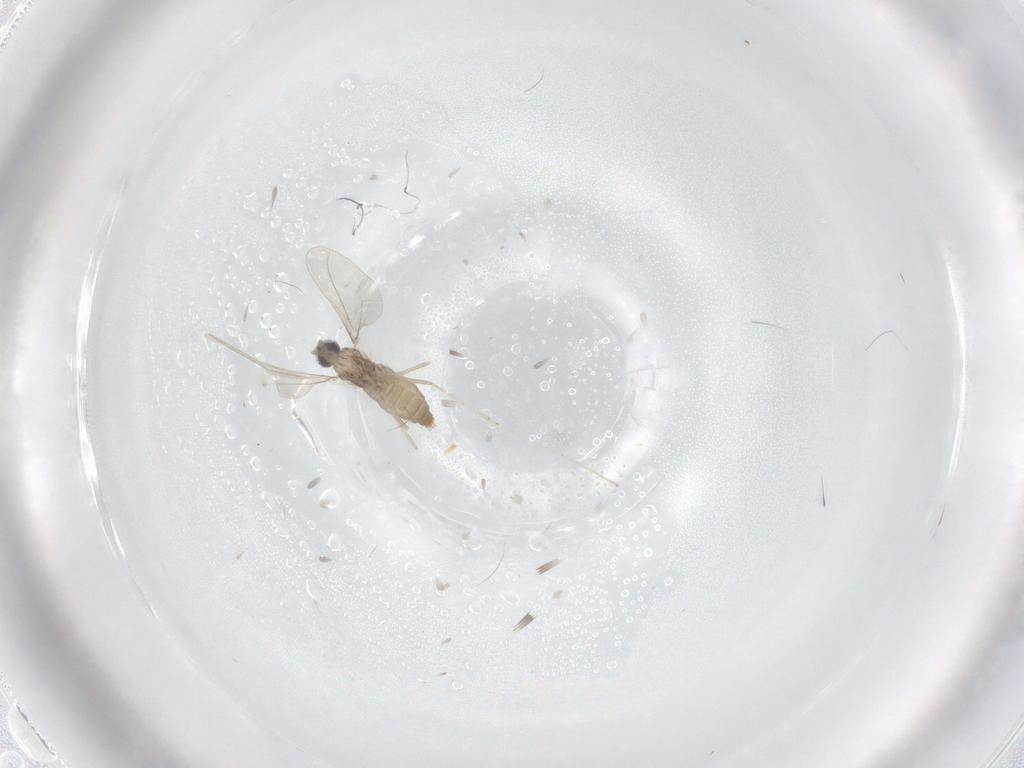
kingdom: Animalia
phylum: Arthropoda
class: Insecta
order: Diptera
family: Cecidomyiidae
